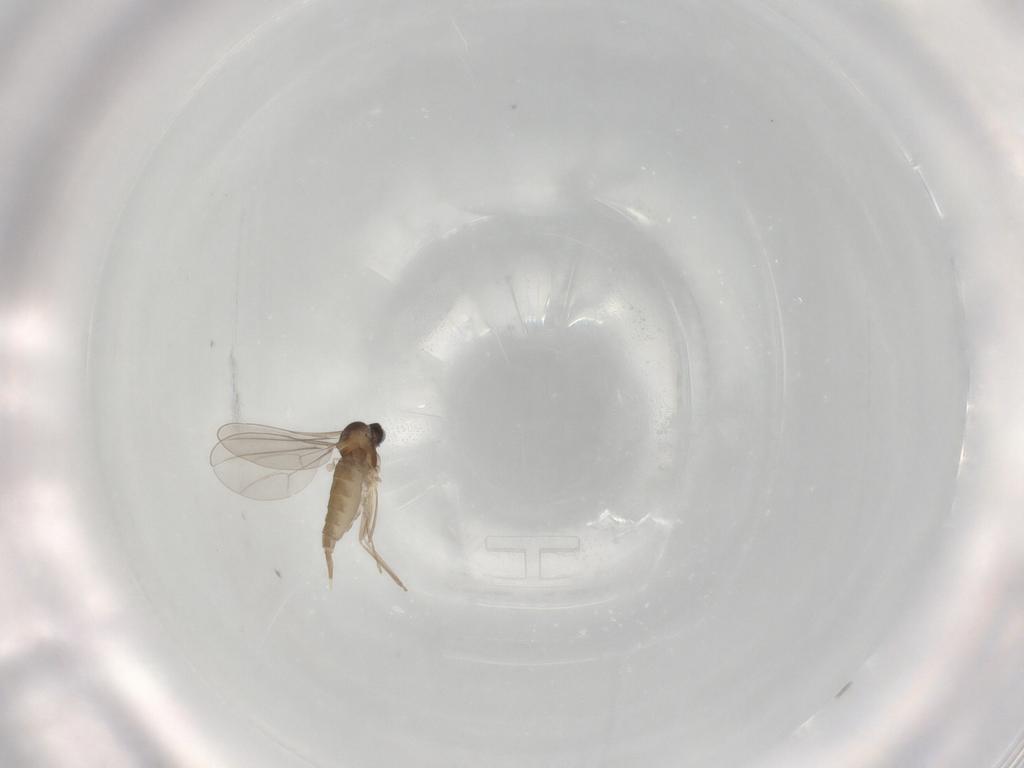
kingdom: Animalia
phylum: Arthropoda
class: Insecta
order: Diptera
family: Cecidomyiidae
